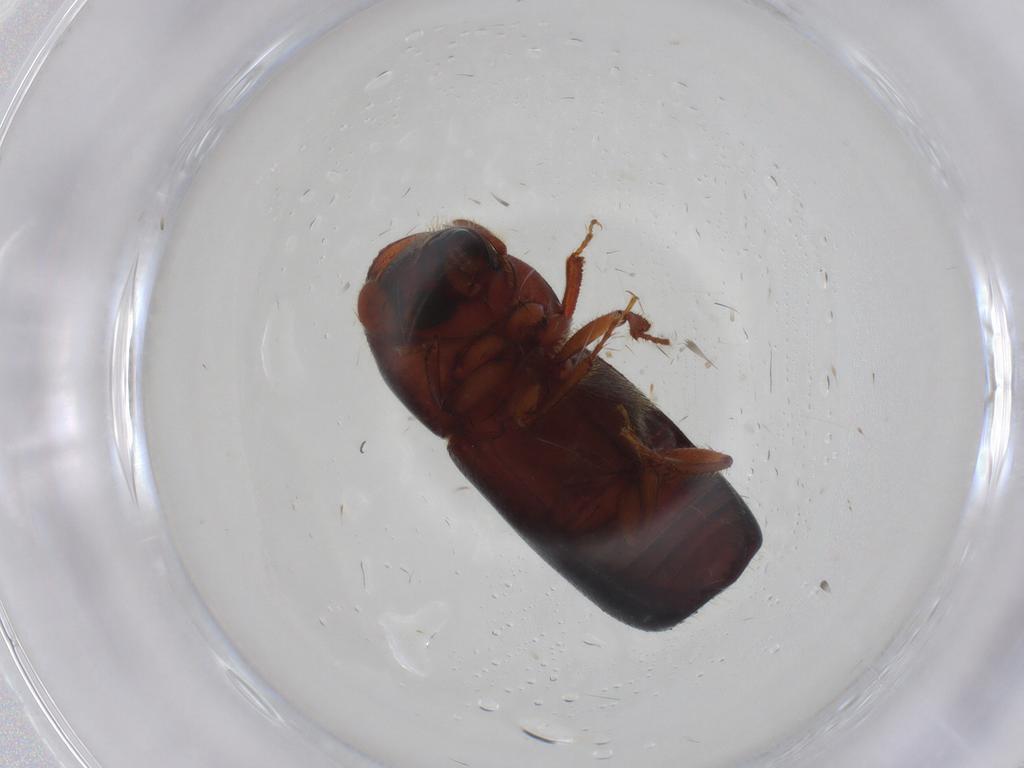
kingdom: Animalia
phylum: Arthropoda
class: Insecta
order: Coleoptera
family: Curculionidae
